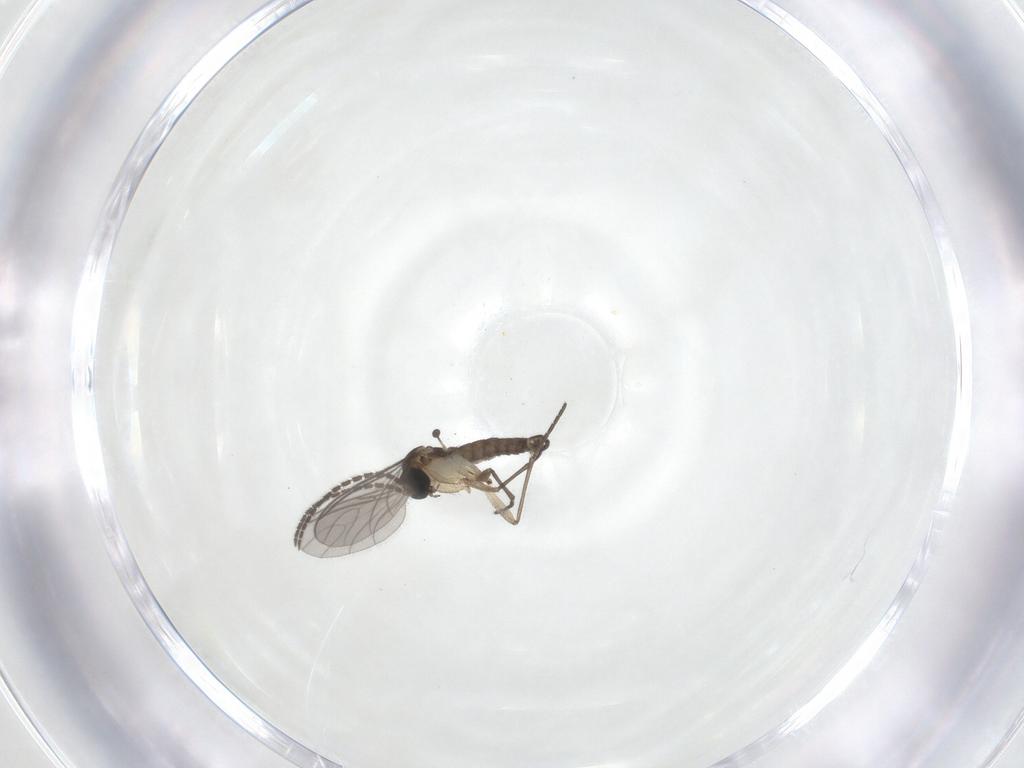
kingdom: Animalia
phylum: Arthropoda
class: Insecta
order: Diptera
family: Sciaridae
